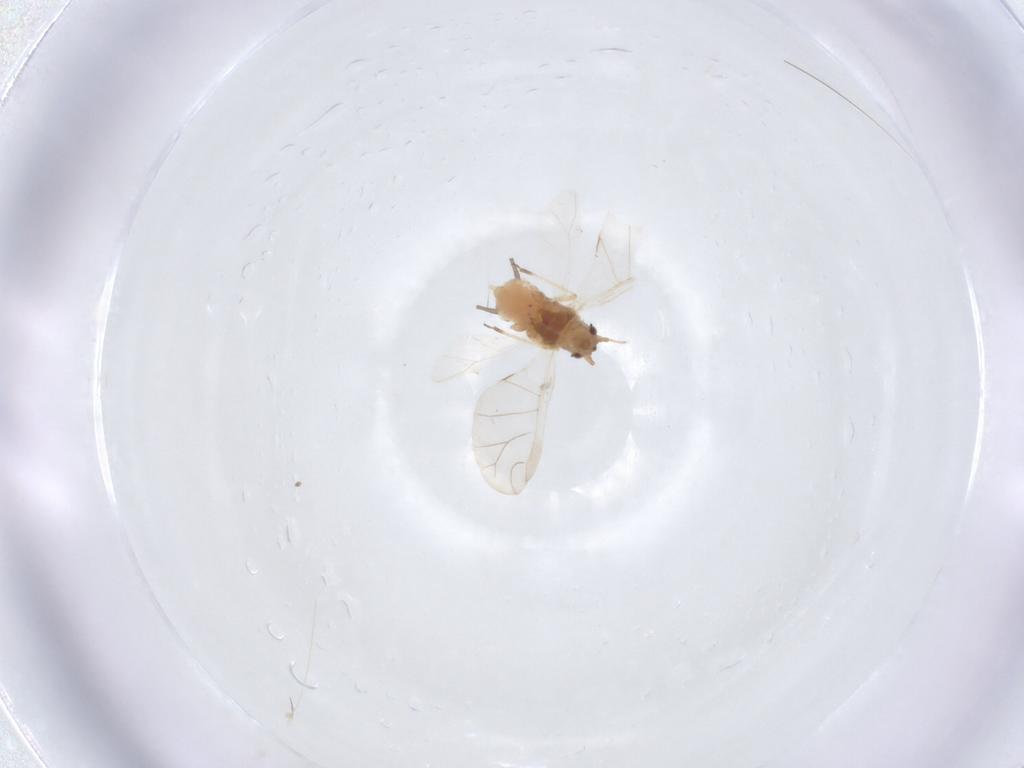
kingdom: Animalia
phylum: Arthropoda
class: Insecta
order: Hemiptera
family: Aphididae
